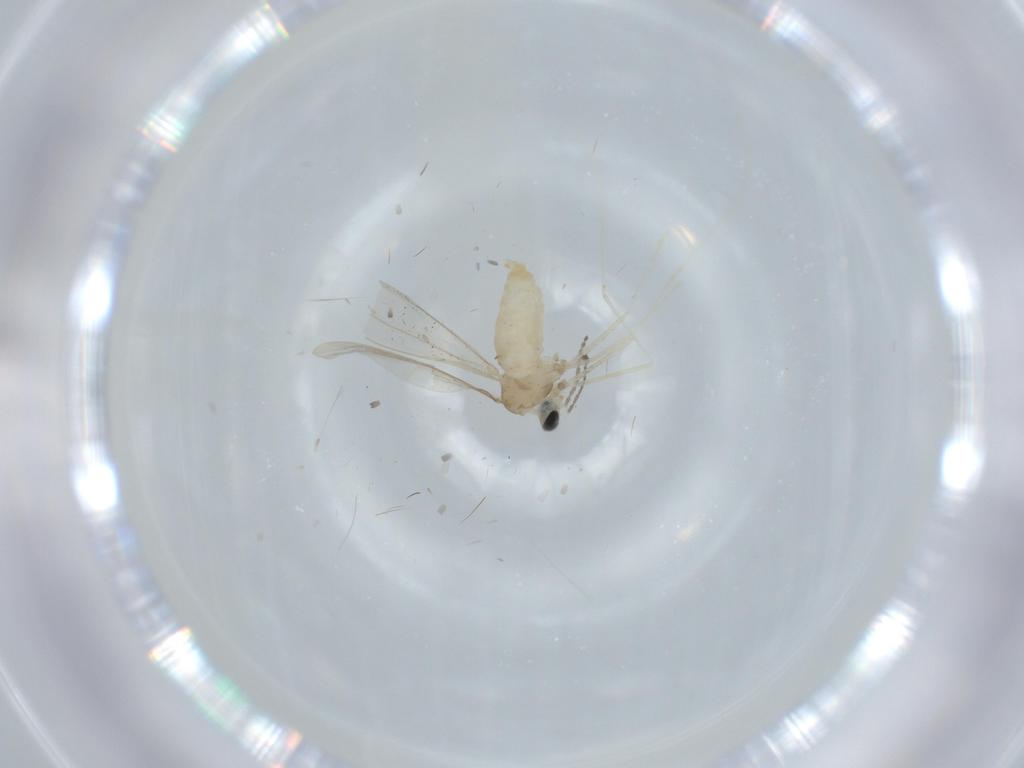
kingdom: Animalia
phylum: Arthropoda
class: Insecta
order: Diptera
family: Cecidomyiidae
